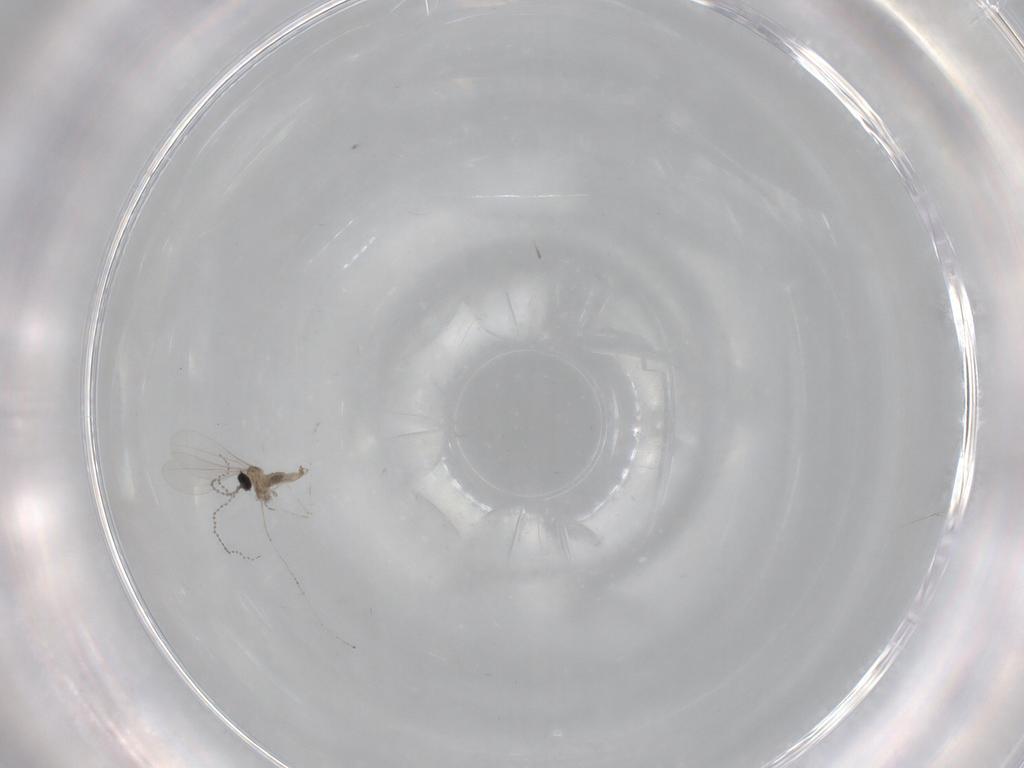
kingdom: Animalia
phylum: Arthropoda
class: Insecta
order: Diptera
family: Cecidomyiidae
